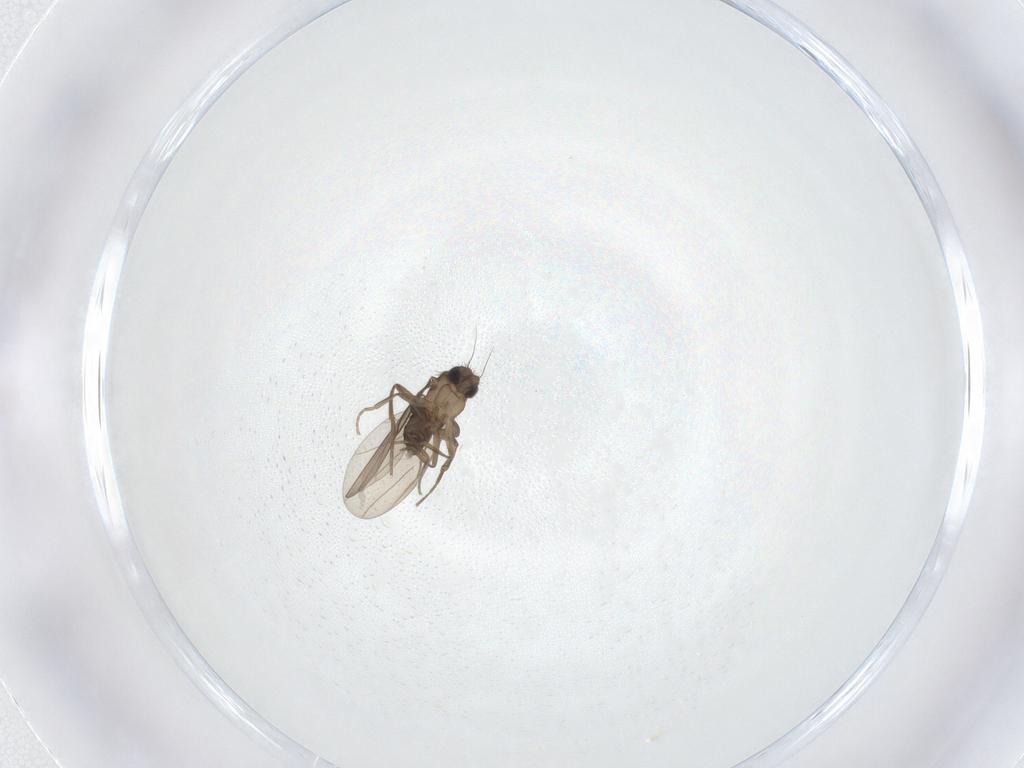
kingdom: Animalia
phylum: Arthropoda
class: Insecta
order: Diptera
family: Phoridae
